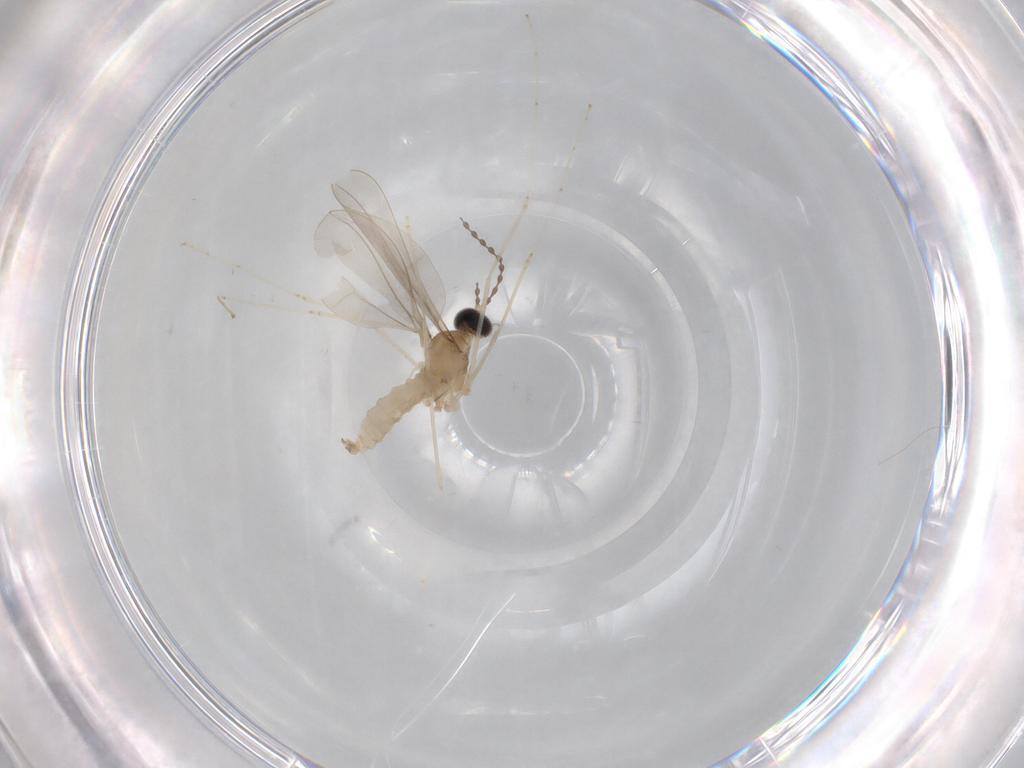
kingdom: Animalia
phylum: Arthropoda
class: Insecta
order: Diptera
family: Cecidomyiidae
